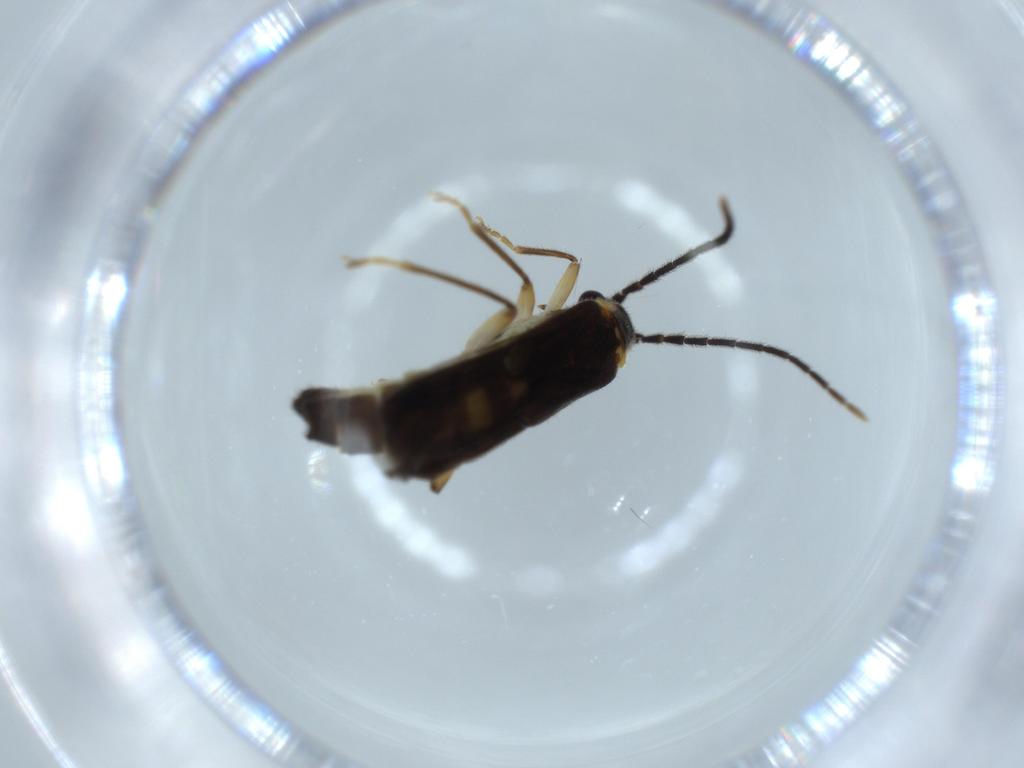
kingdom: Animalia
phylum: Arthropoda
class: Insecta
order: Coleoptera
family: Cantharidae
